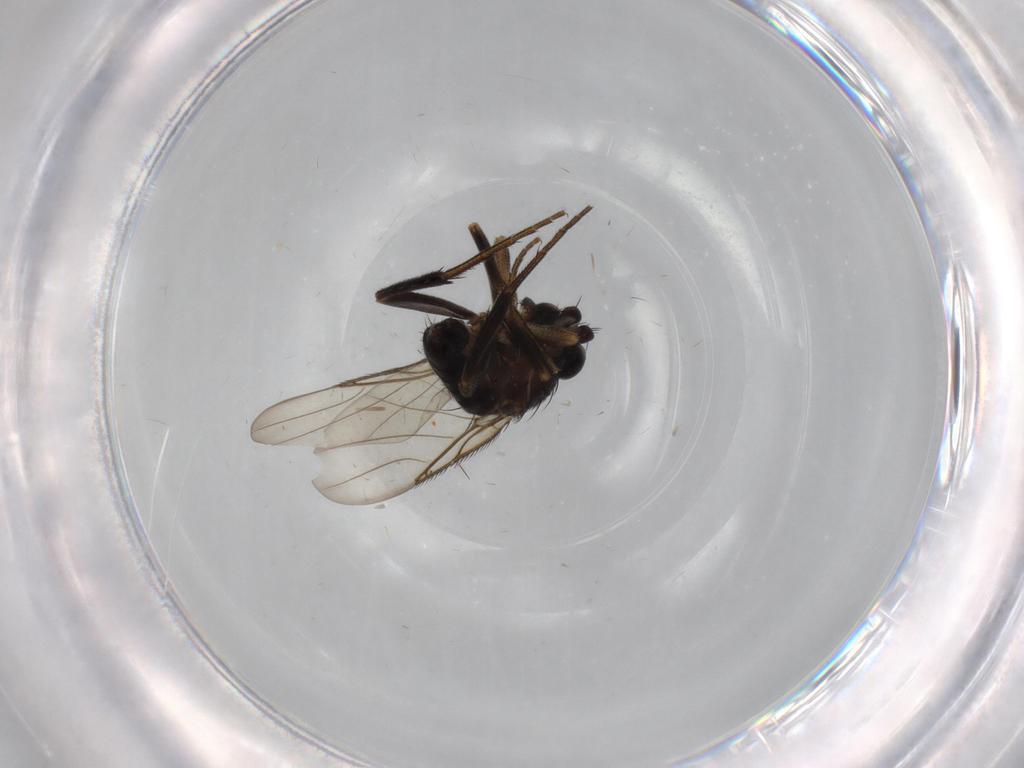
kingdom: Animalia
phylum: Arthropoda
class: Insecta
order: Diptera
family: Phoridae
